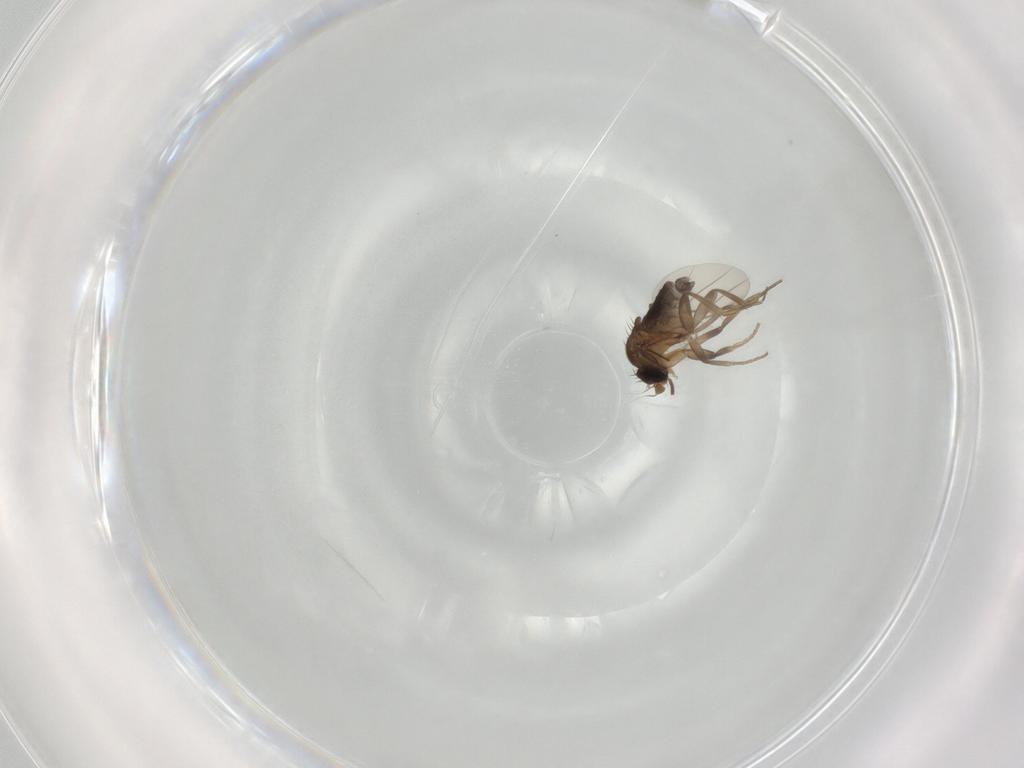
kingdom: Animalia
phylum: Arthropoda
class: Insecta
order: Diptera
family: Phoridae
